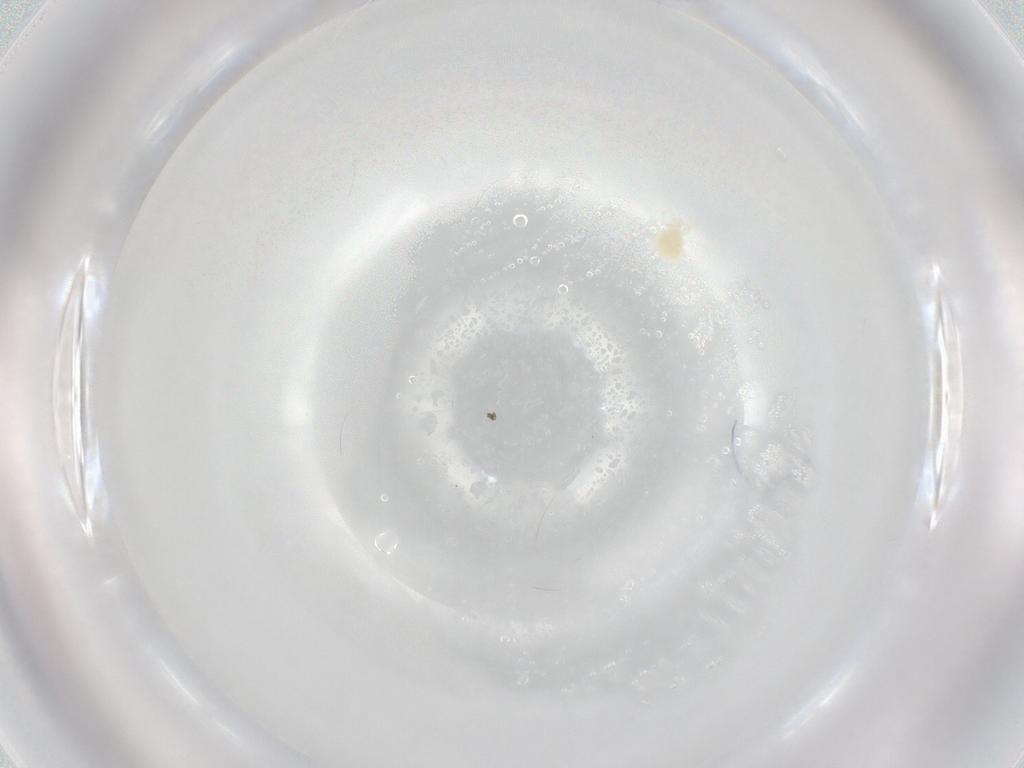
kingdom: Animalia
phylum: Arthropoda
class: Arachnida
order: Trombidiformes
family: Eupodidae
